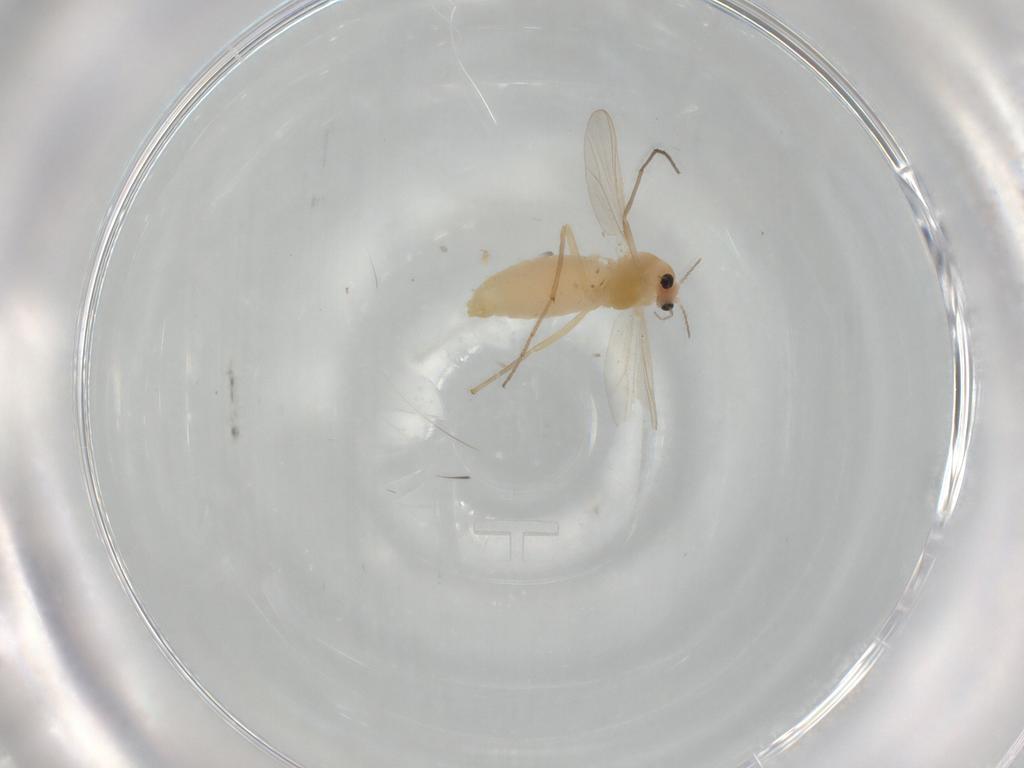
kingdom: Animalia
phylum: Arthropoda
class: Insecta
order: Diptera
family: Chironomidae
